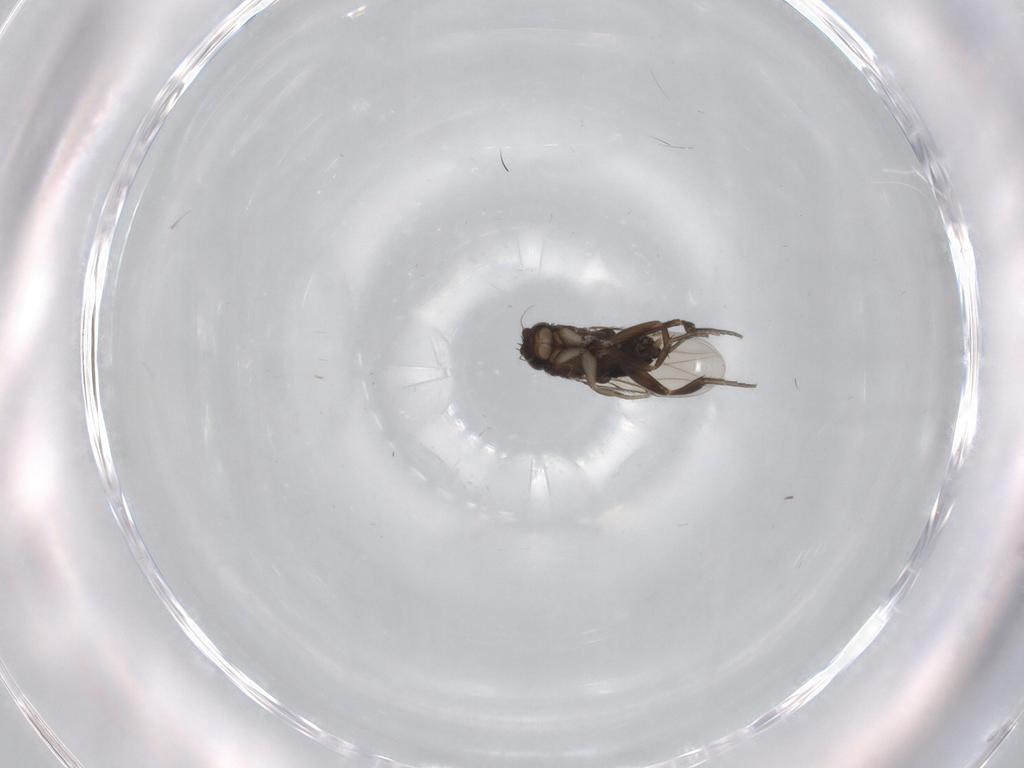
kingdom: Animalia
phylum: Arthropoda
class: Insecta
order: Diptera
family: Phoridae
